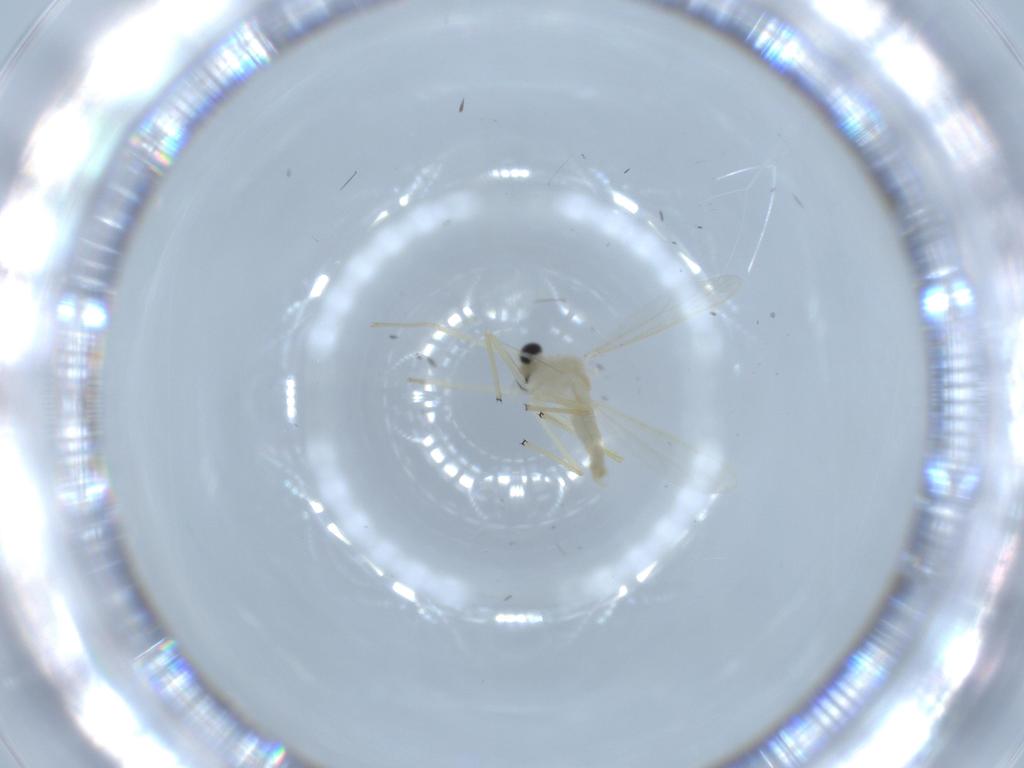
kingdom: Animalia
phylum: Arthropoda
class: Insecta
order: Diptera
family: Chironomidae
